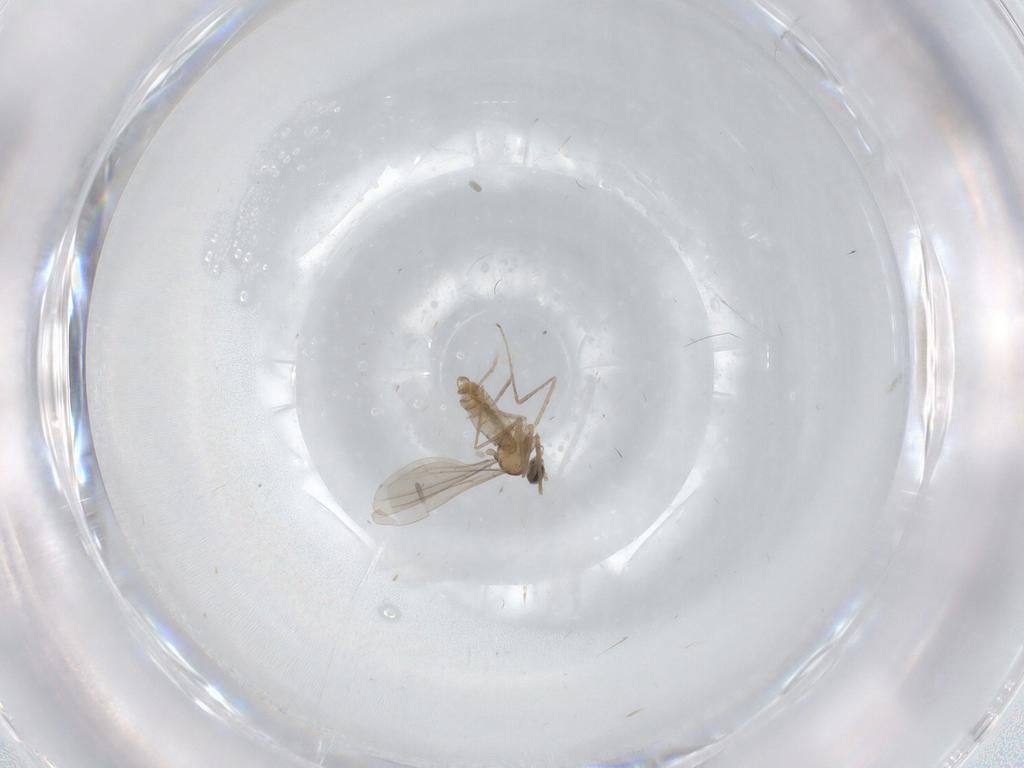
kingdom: Animalia
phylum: Arthropoda
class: Insecta
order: Diptera
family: Psychodidae
